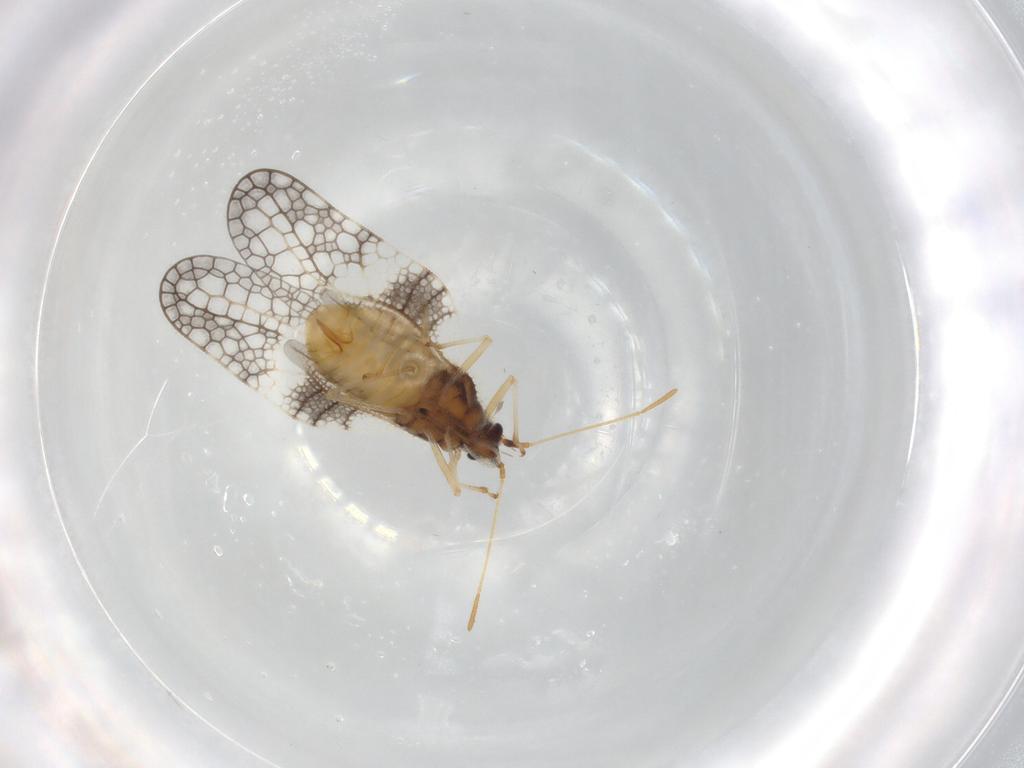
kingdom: Animalia
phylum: Arthropoda
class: Insecta
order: Hemiptera
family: Tingidae
